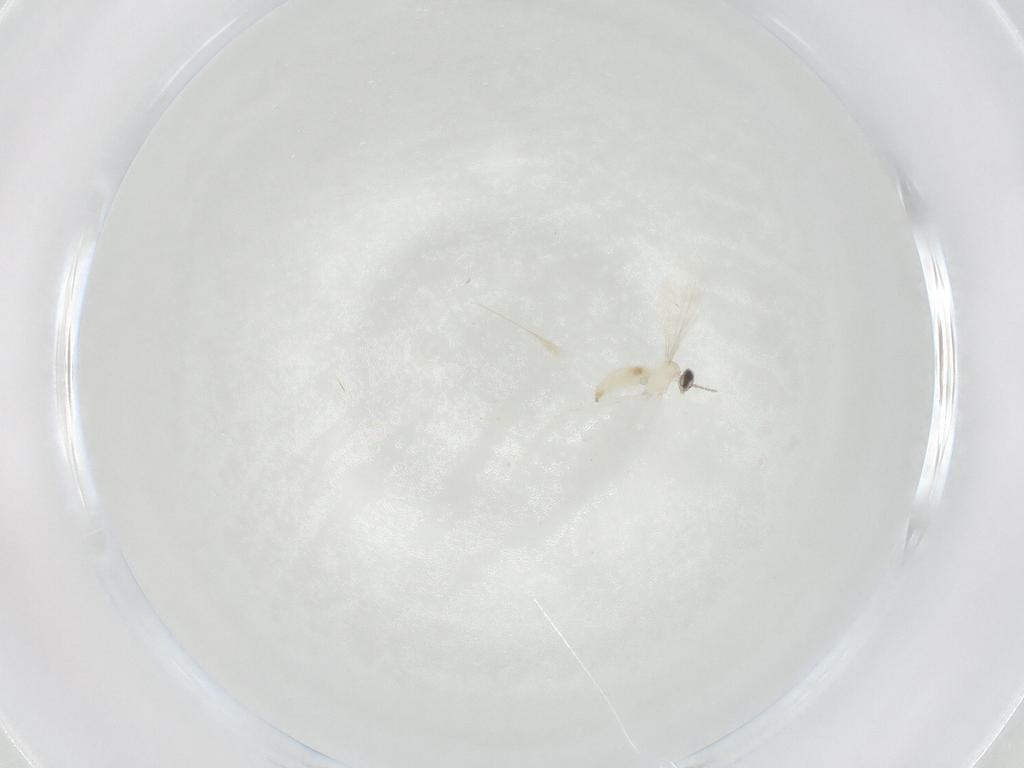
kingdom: Animalia
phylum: Arthropoda
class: Insecta
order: Diptera
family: Cecidomyiidae
